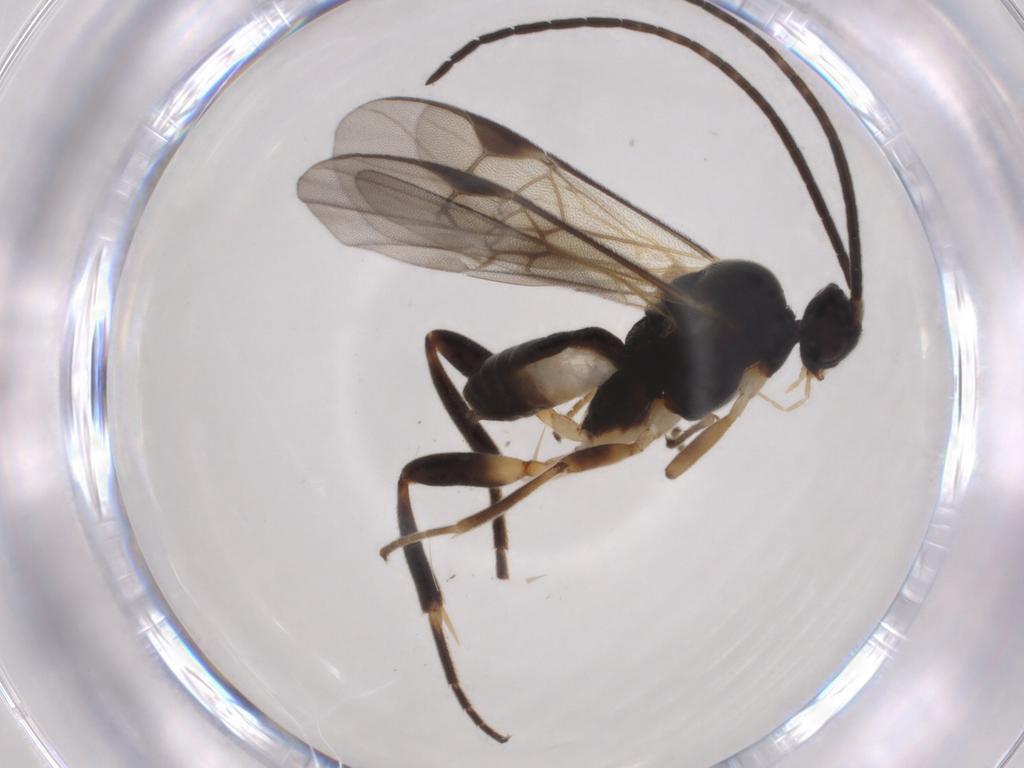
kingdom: Animalia
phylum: Arthropoda
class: Insecta
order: Hymenoptera
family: Braconidae
